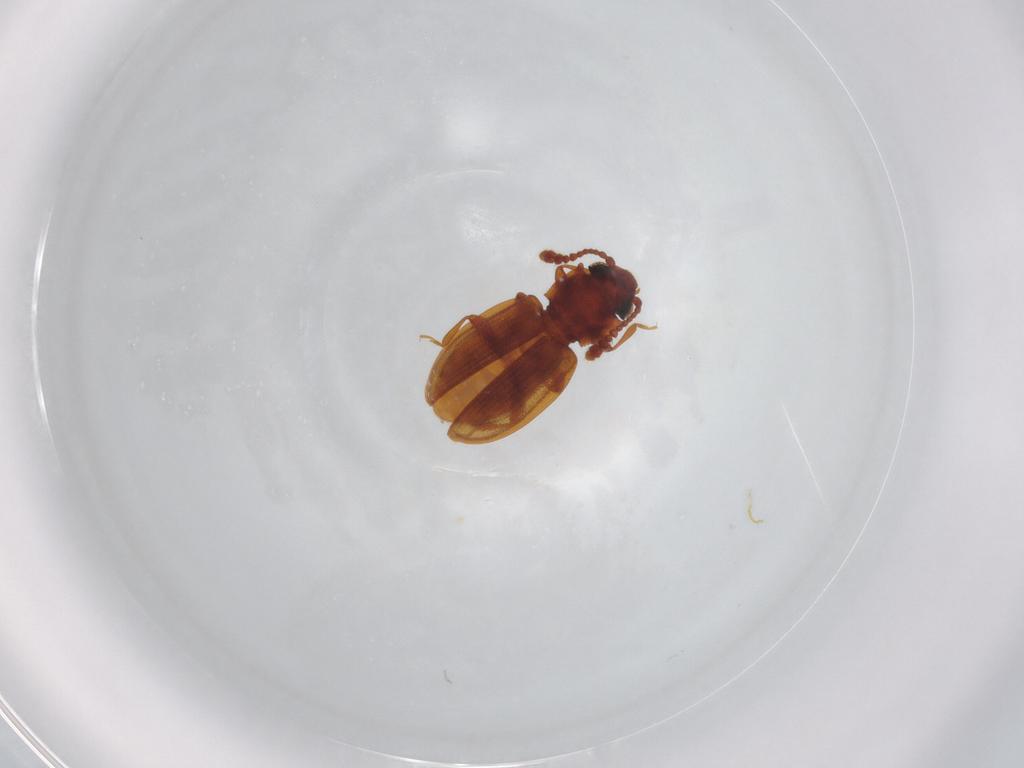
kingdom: Animalia
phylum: Arthropoda
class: Insecta
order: Coleoptera
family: Silvanidae
